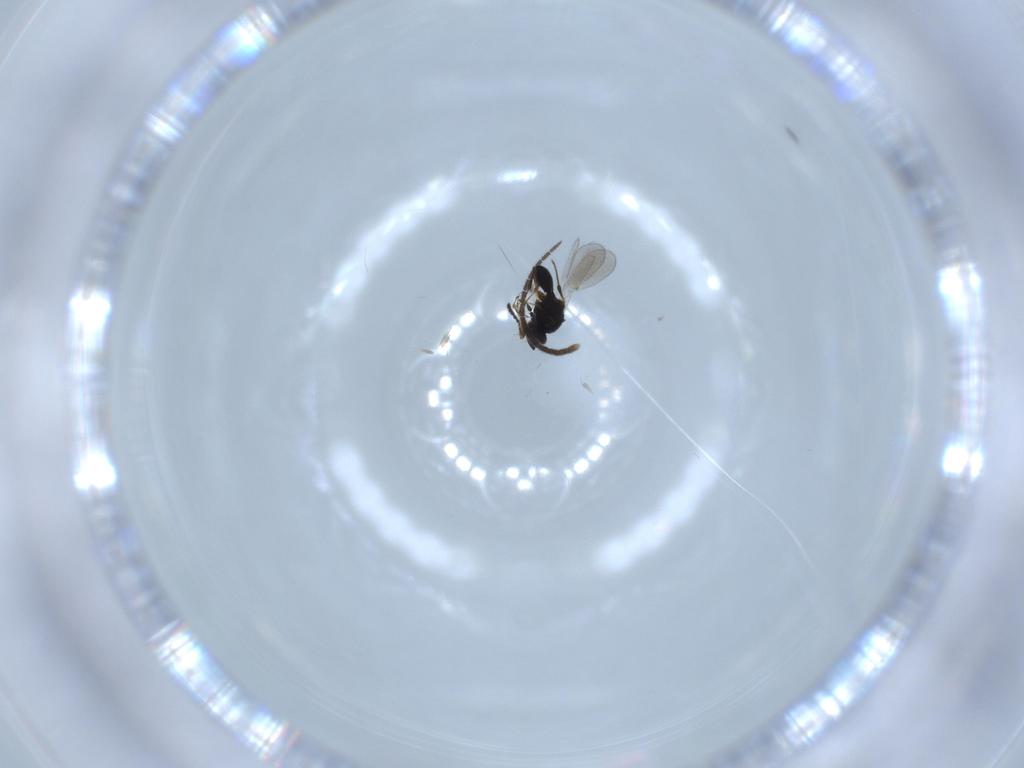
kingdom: Animalia
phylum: Arthropoda
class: Insecta
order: Hymenoptera
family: Platygastridae
